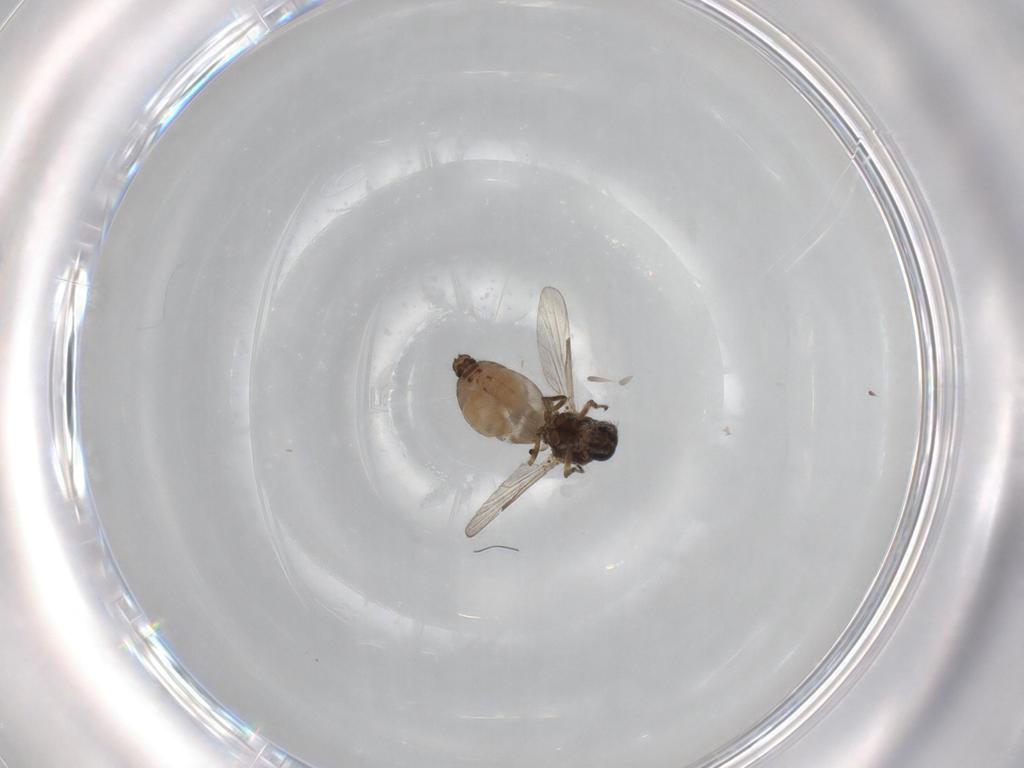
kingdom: Animalia
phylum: Arthropoda
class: Insecta
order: Diptera
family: Ceratopogonidae
